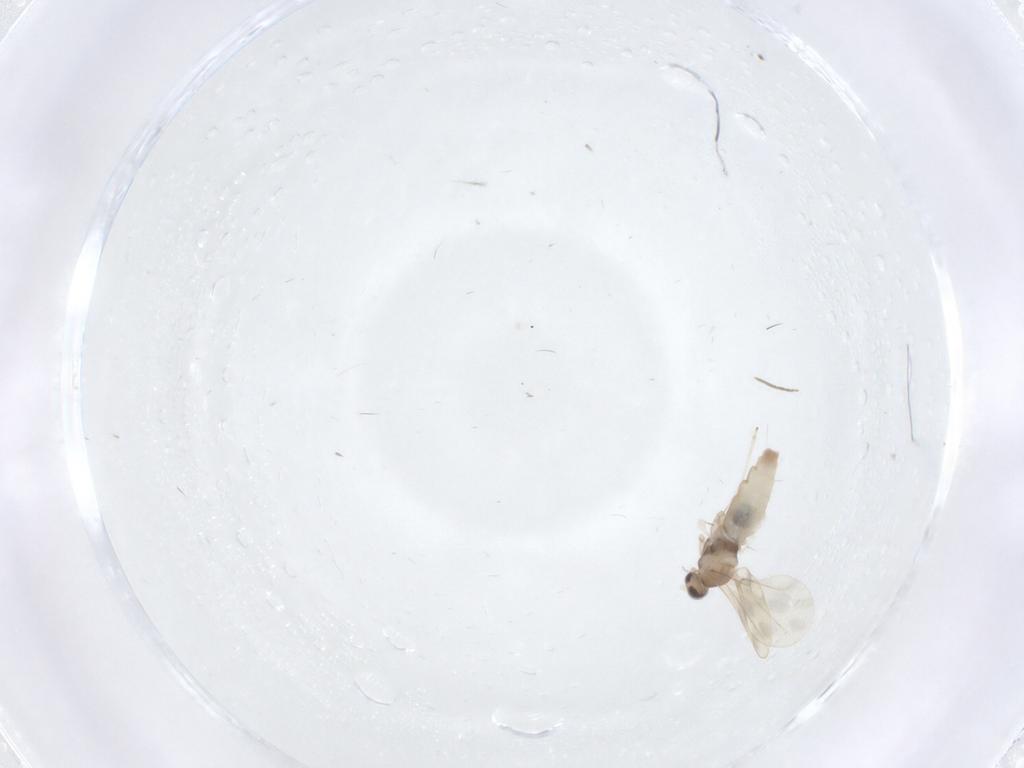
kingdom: Animalia
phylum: Arthropoda
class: Insecta
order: Diptera
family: Chironomidae
